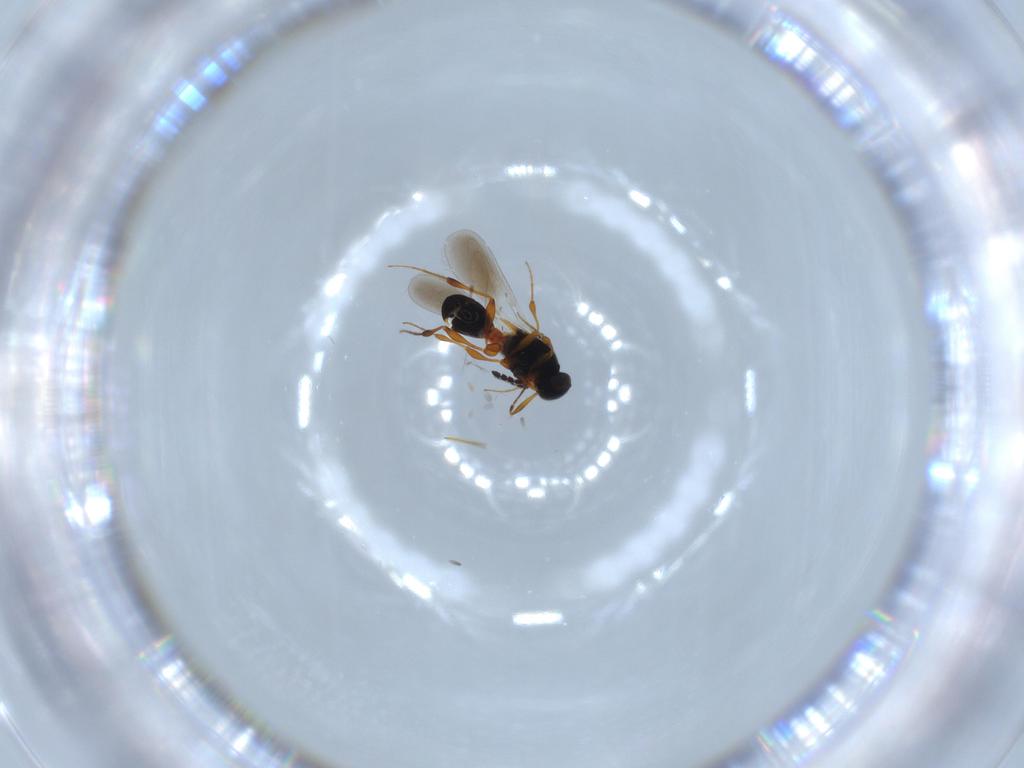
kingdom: Animalia
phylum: Arthropoda
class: Insecta
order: Hymenoptera
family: Platygastridae
